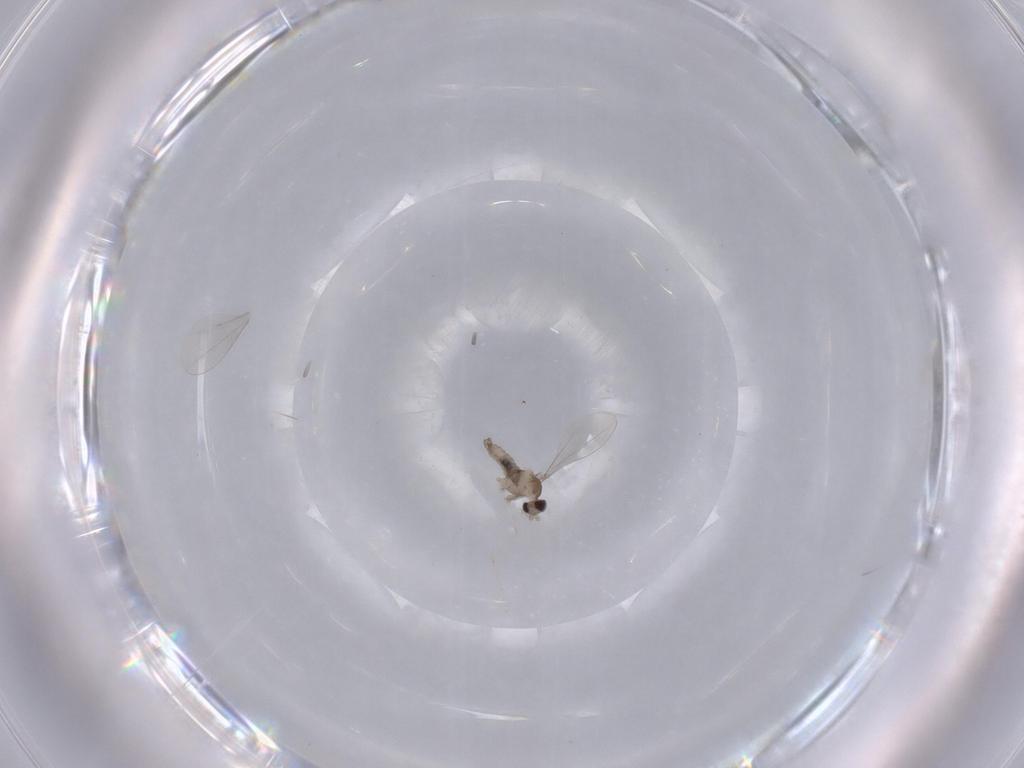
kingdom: Animalia
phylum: Arthropoda
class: Insecta
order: Diptera
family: Cecidomyiidae
